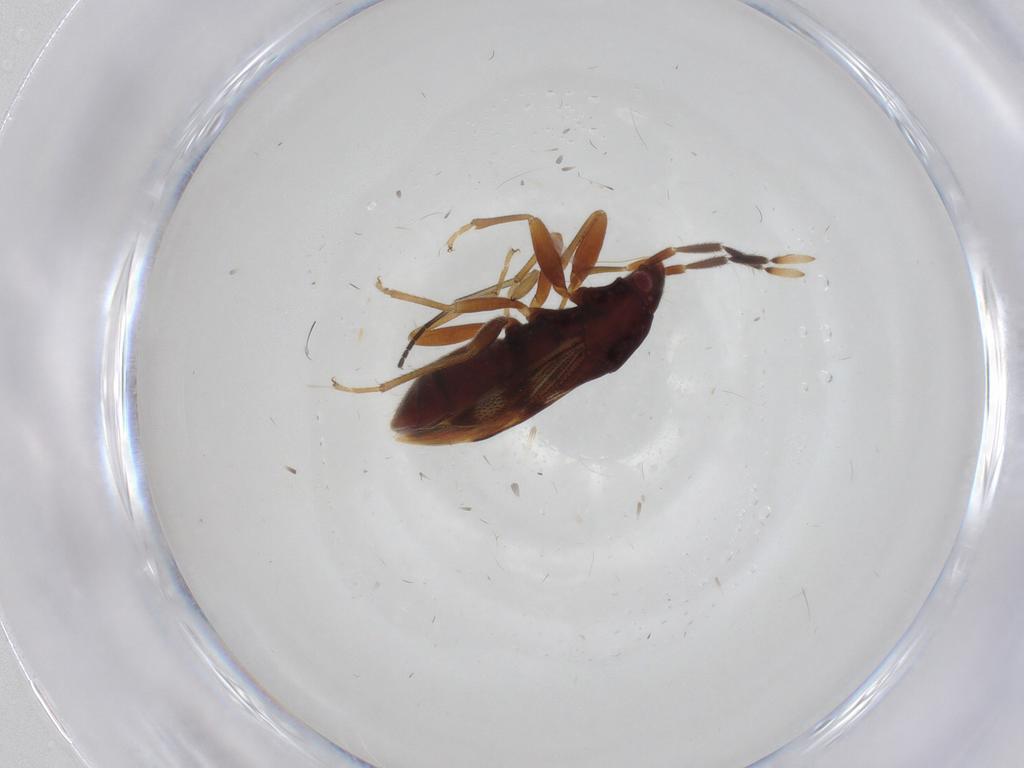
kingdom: Animalia
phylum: Arthropoda
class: Insecta
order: Hemiptera
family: Rhyparochromidae
